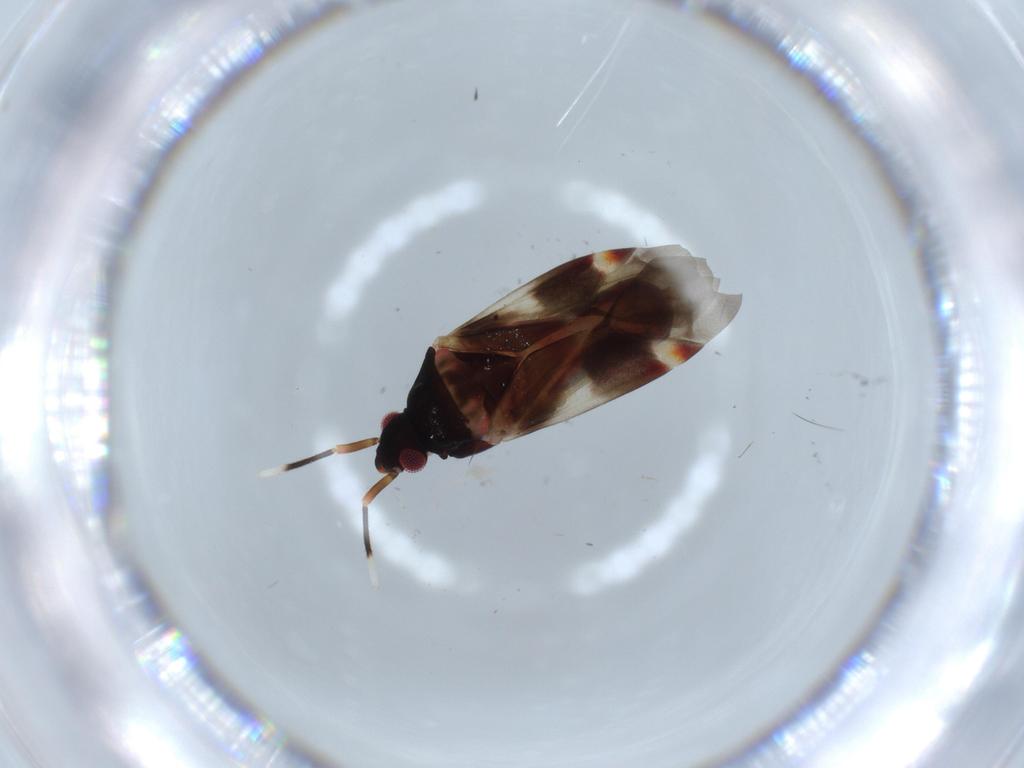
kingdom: Animalia
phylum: Arthropoda
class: Insecta
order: Hemiptera
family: Miridae
